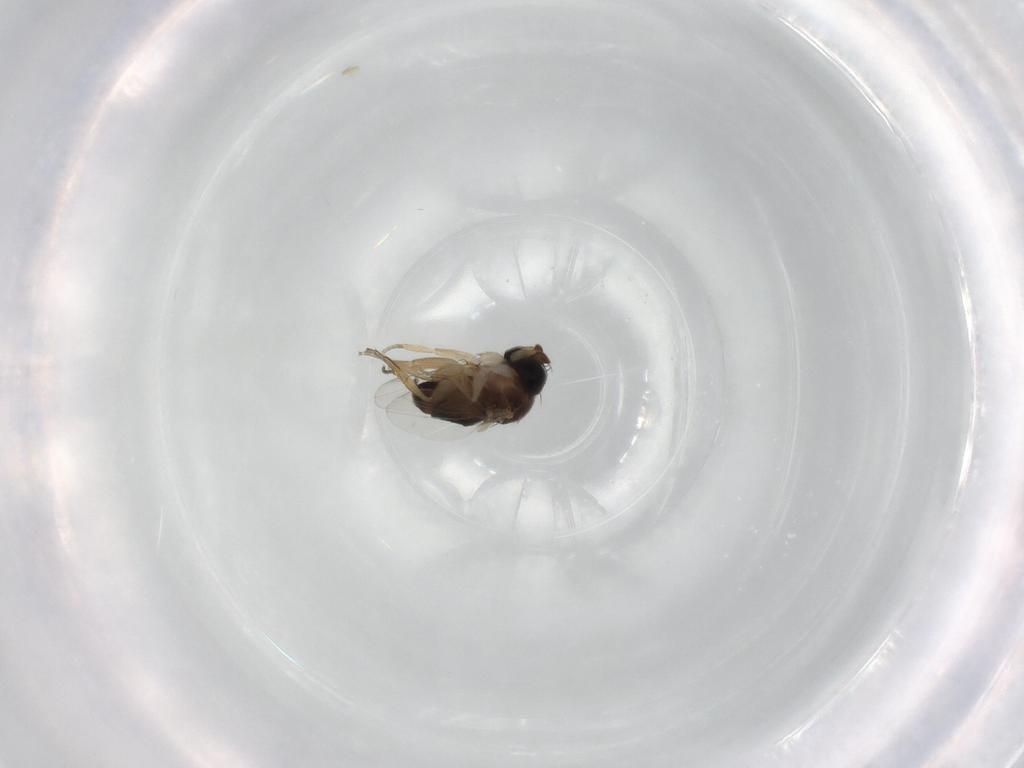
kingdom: Animalia
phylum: Arthropoda
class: Insecta
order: Diptera
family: Phoridae
